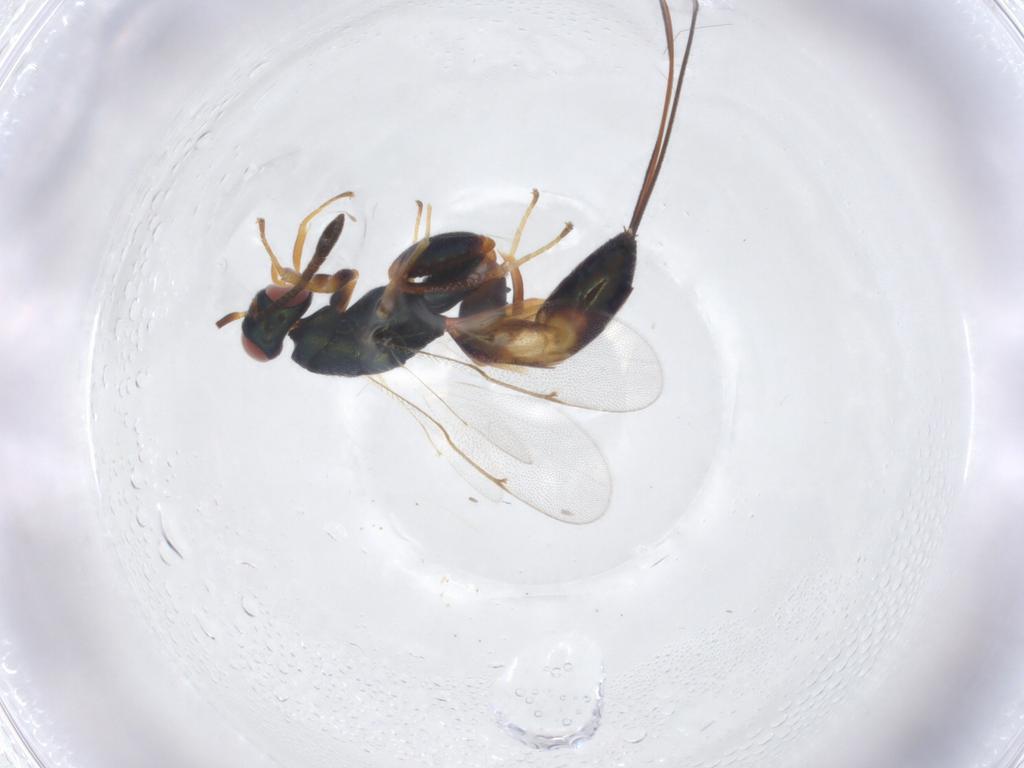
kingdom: Animalia
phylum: Arthropoda
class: Insecta
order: Hymenoptera
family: Torymidae
